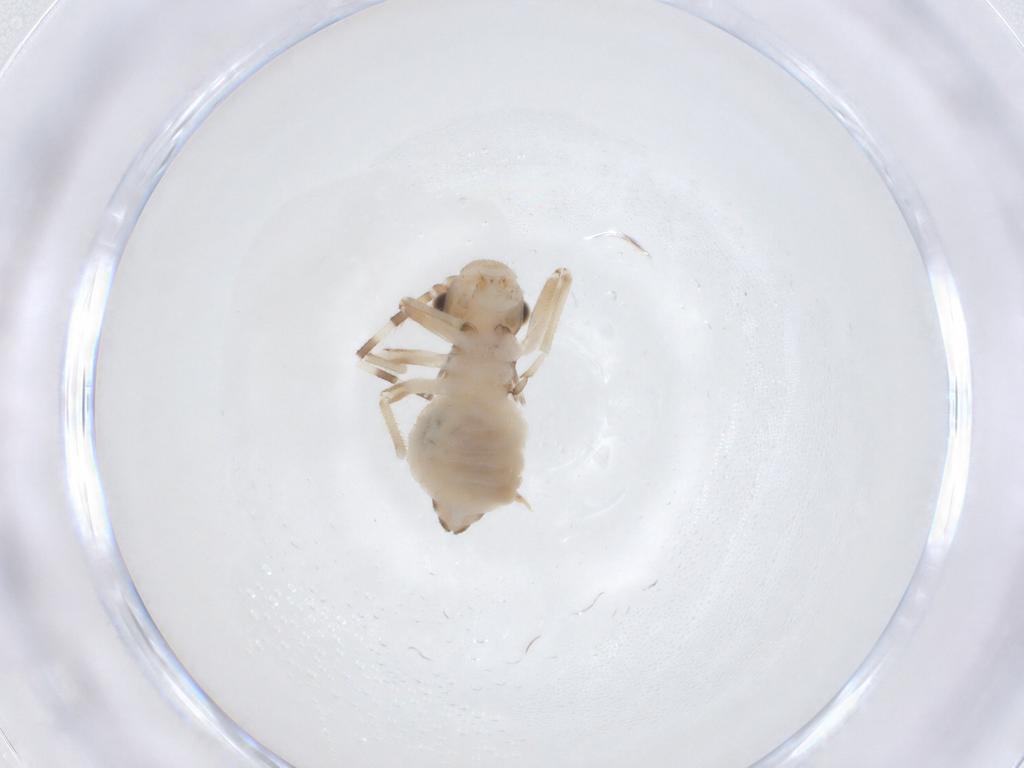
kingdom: Animalia
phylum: Arthropoda
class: Insecta
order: Psocodea
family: Amphipsocidae
